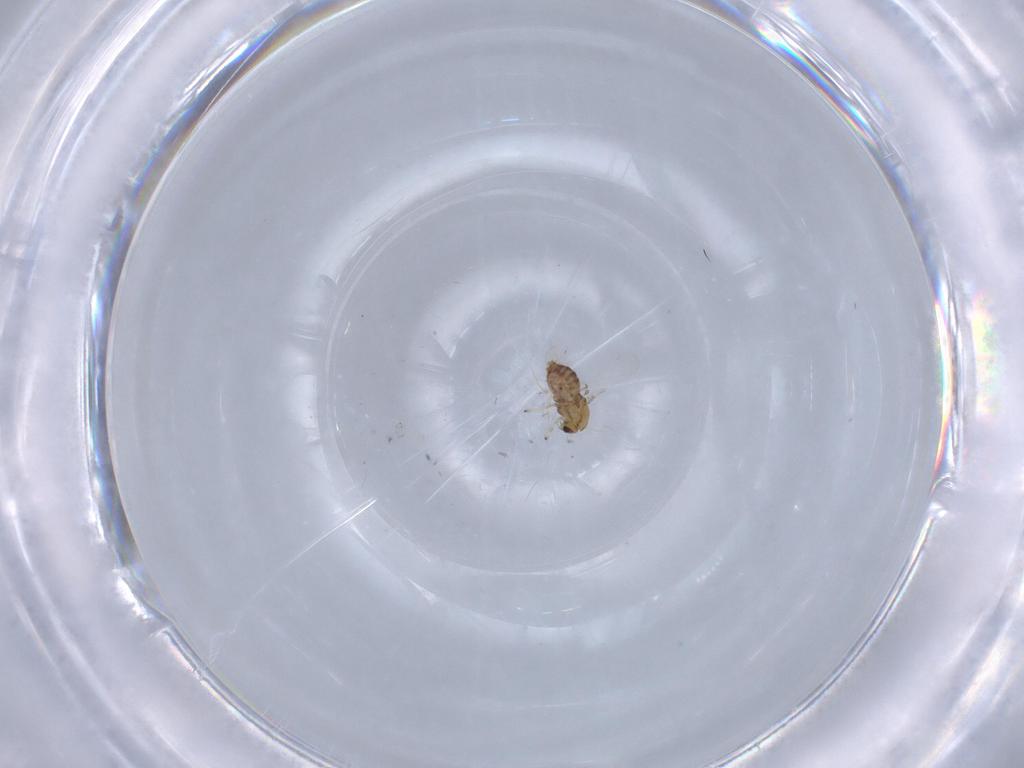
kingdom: Animalia
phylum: Arthropoda
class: Insecta
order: Diptera
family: Chironomidae
